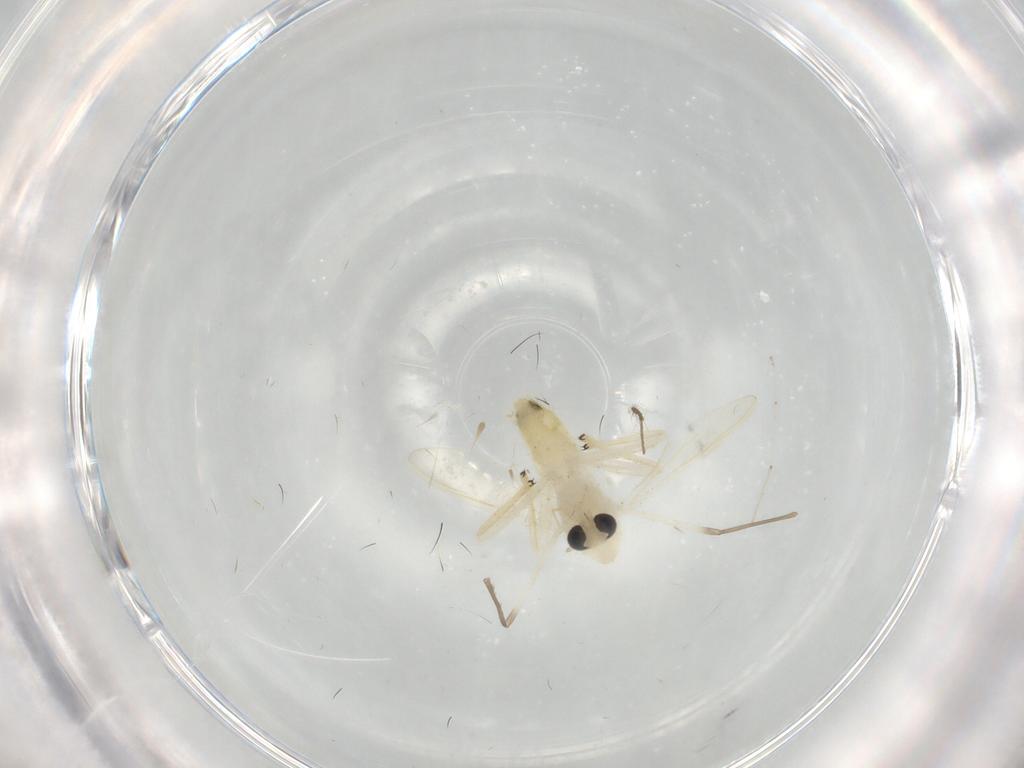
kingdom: Animalia
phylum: Arthropoda
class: Insecta
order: Diptera
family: Chironomidae
